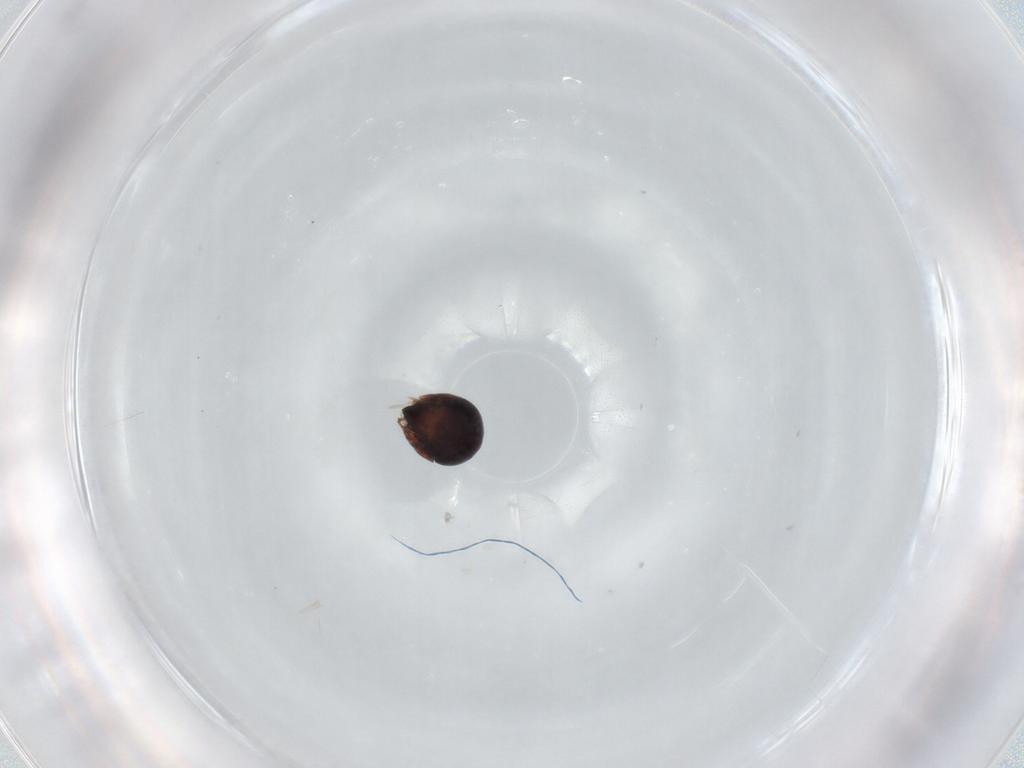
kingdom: Animalia
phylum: Arthropoda
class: Arachnida
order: Sarcoptiformes
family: Ceratozetidae
